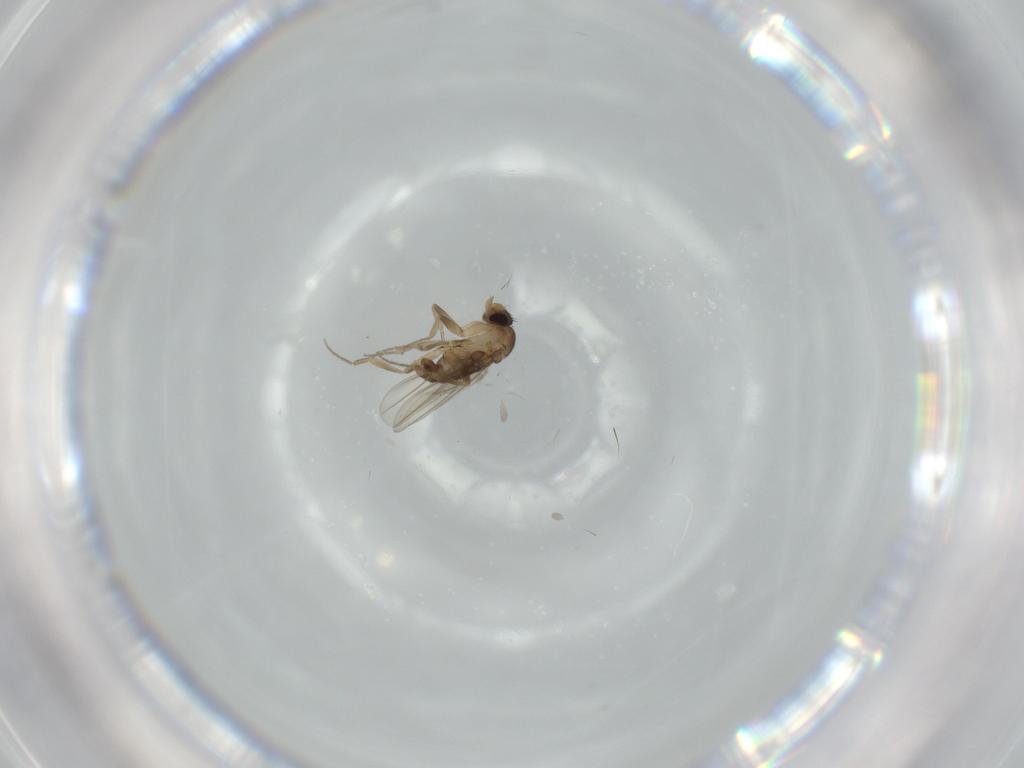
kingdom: Animalia
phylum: Arthropoda
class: Insecta
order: Diptera
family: Phoridae
